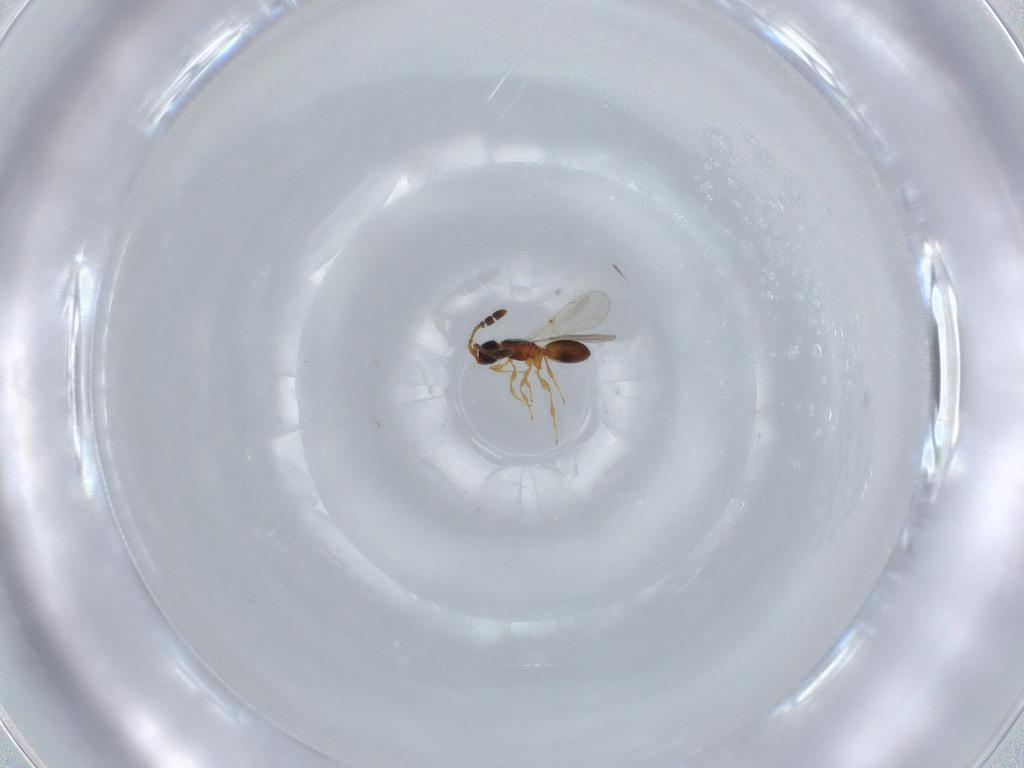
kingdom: Animalia
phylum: Arthropoda
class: Insecta
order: Hymenoptera
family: Diapriidae
